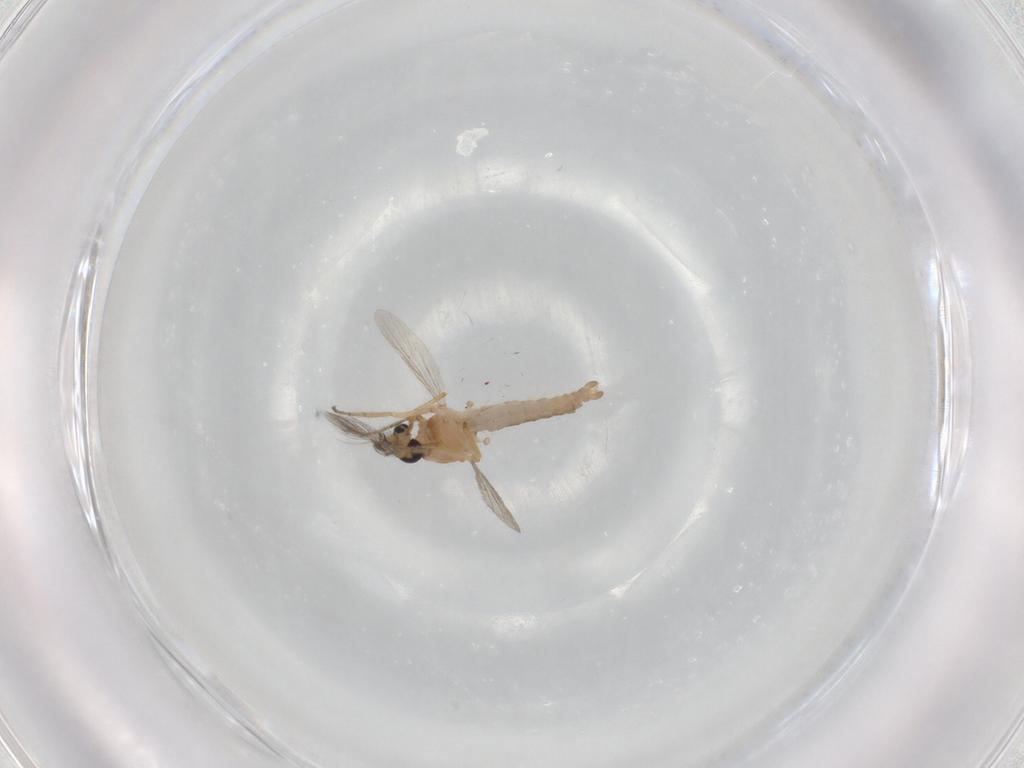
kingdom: Animalia
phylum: Arthropoda
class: Insecta
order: Diptera
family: Ceratopogonidae
